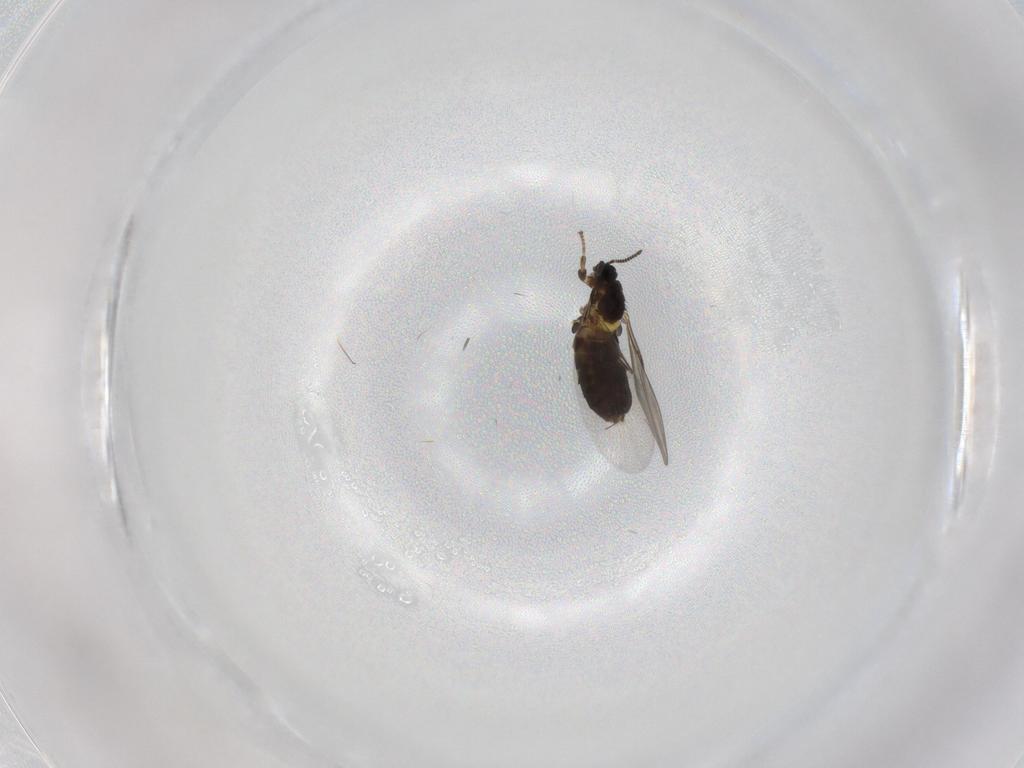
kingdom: Animalia
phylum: Arthropoda
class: Insecta
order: Diptera
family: Scatopsidae
